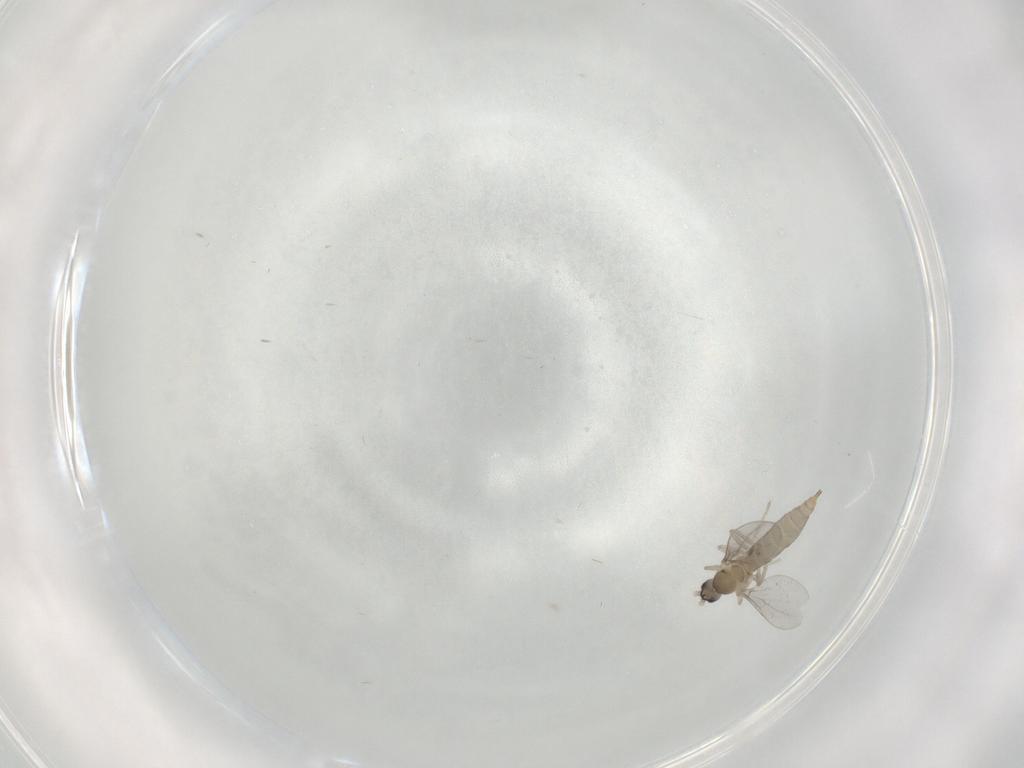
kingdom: Animalia
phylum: Arthropoda
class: Insecta
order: Diptera
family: Cecidomyiidae
